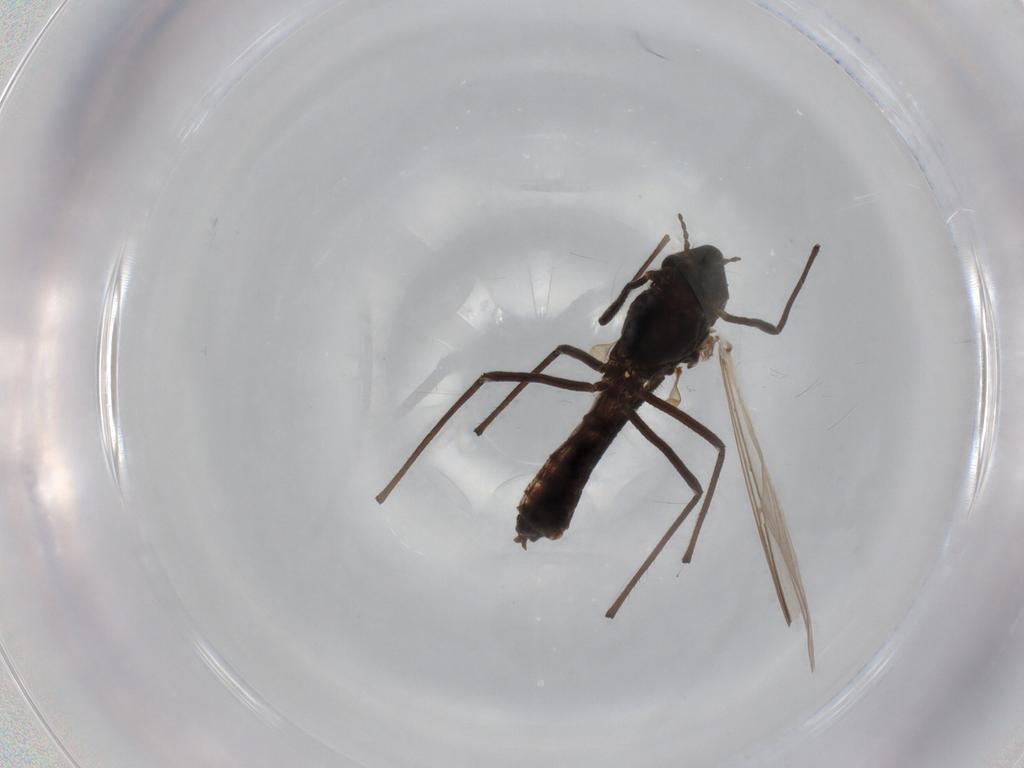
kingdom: Animalia
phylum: Arthropoda
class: Insecta
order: Diptera
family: Chironomidae
